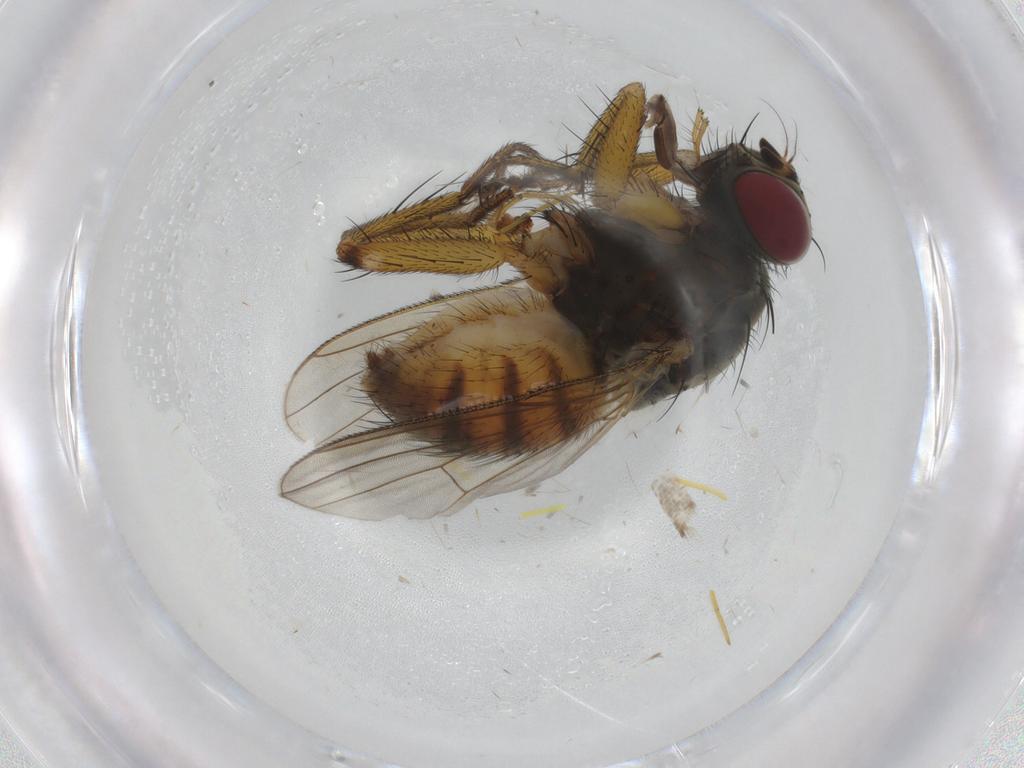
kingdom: Animalia
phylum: Arthropoda
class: Insecta
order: Diptera
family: Muscidae
